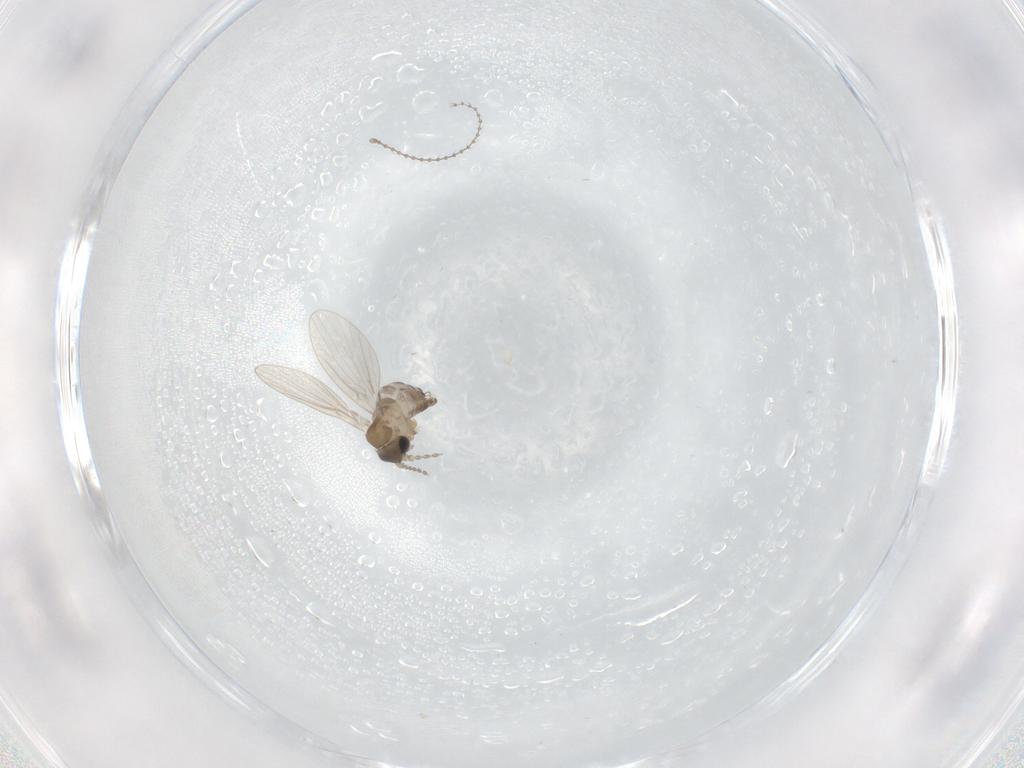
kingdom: Animalia
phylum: Arthropoda
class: Insecta
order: Diptera
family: Cecidomyiidae
